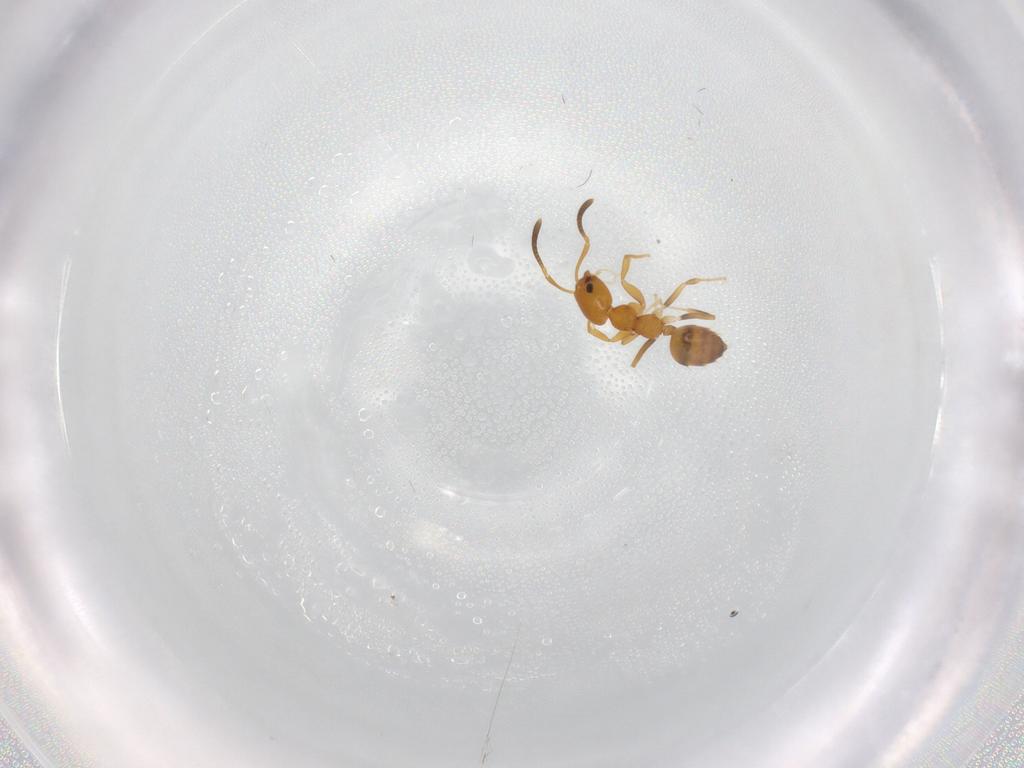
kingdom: Animalia
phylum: Arthropoda
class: Insecta
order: Hymenoptera
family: Formicidae
